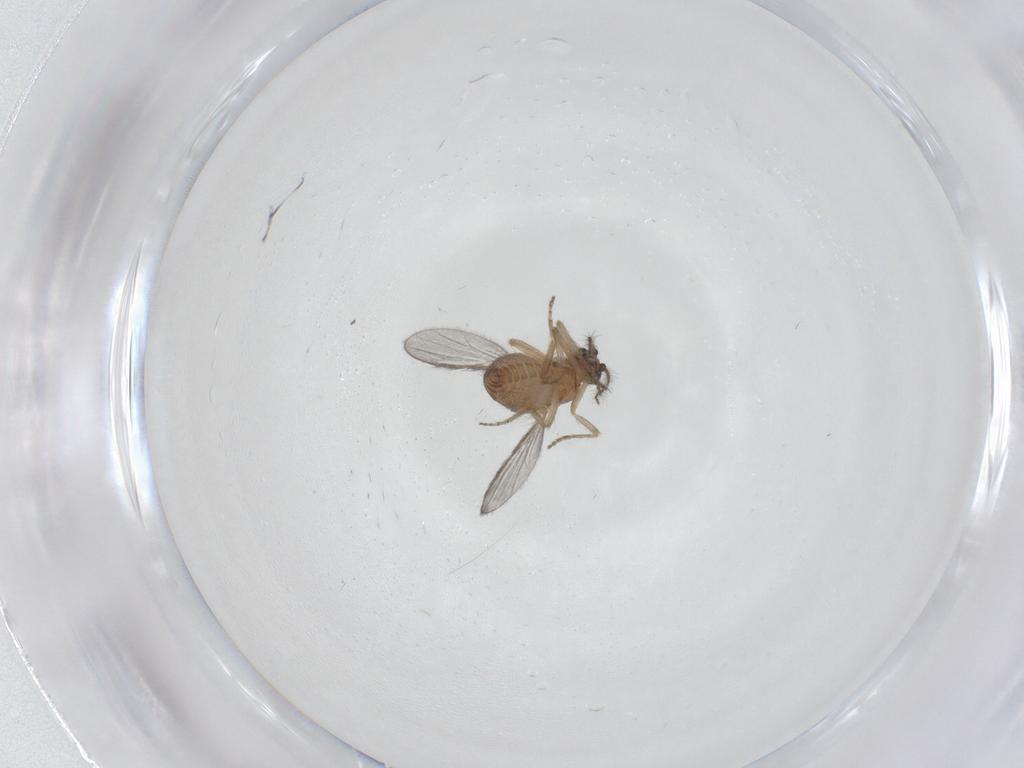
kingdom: Animalia
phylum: Arthropoda
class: Insecta
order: Diptera
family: Ceratopogonidae
